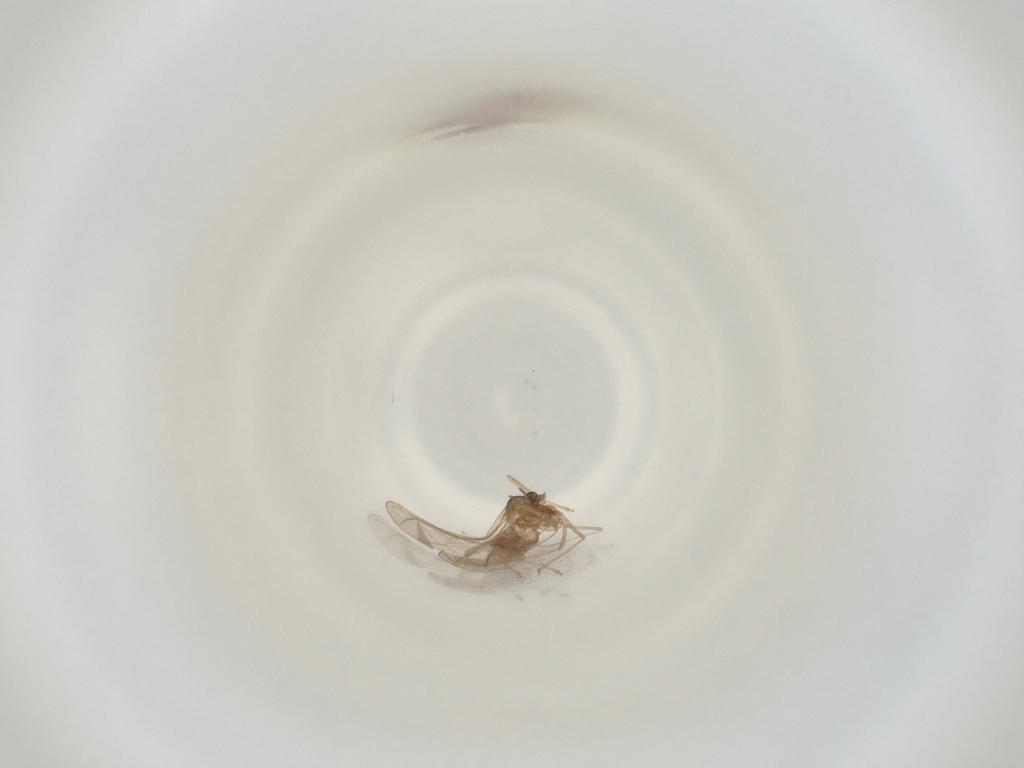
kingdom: Animalia
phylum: Arthropoda
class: Insecta
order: Diptera
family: Cecidomyiidae
